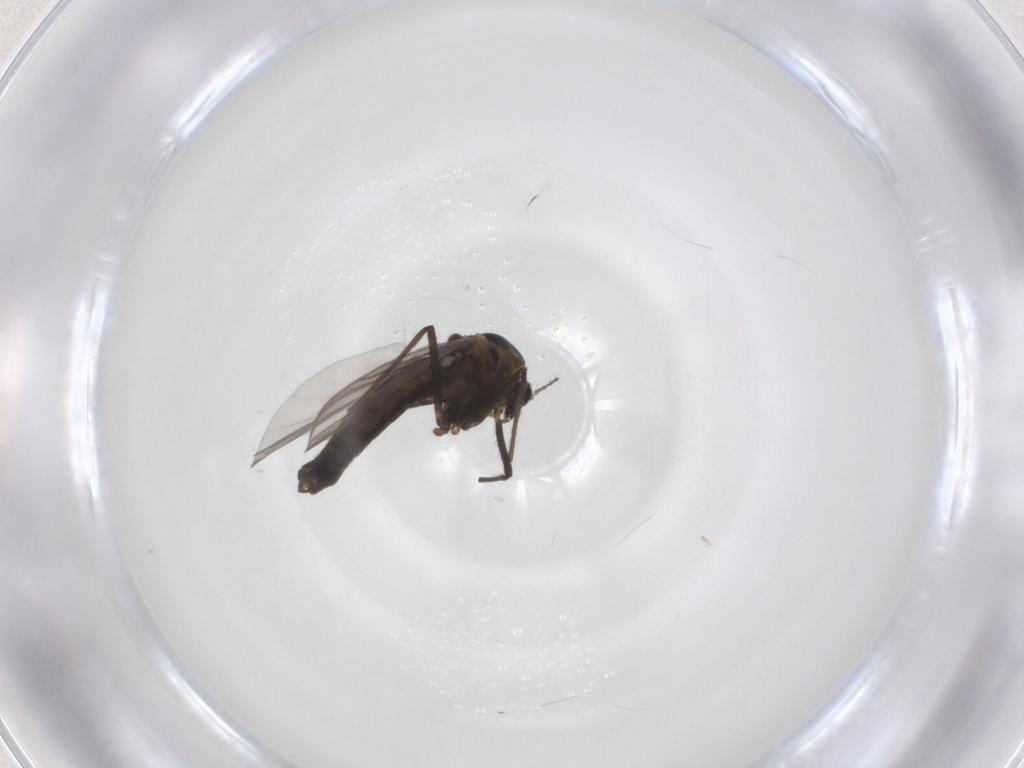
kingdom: Animalia
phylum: Arthropoda
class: Insecta
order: Diptera
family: Chironomidae
